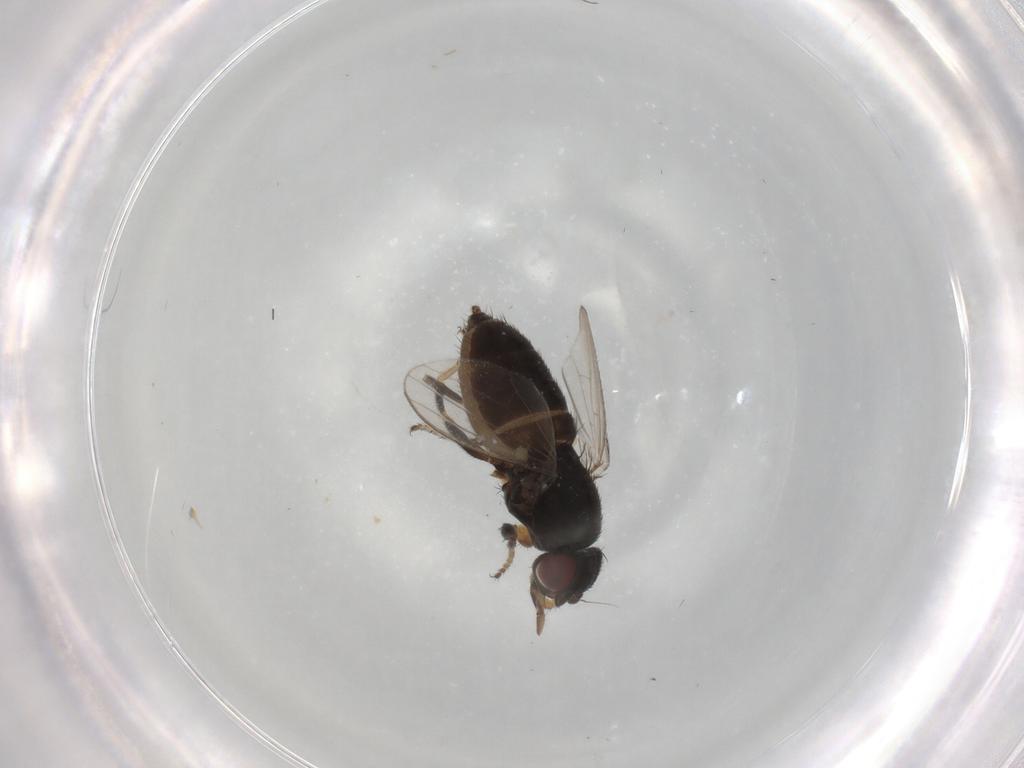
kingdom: Animalia
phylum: Arthropoda
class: Insecta
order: Diptera
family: Milichiidae
